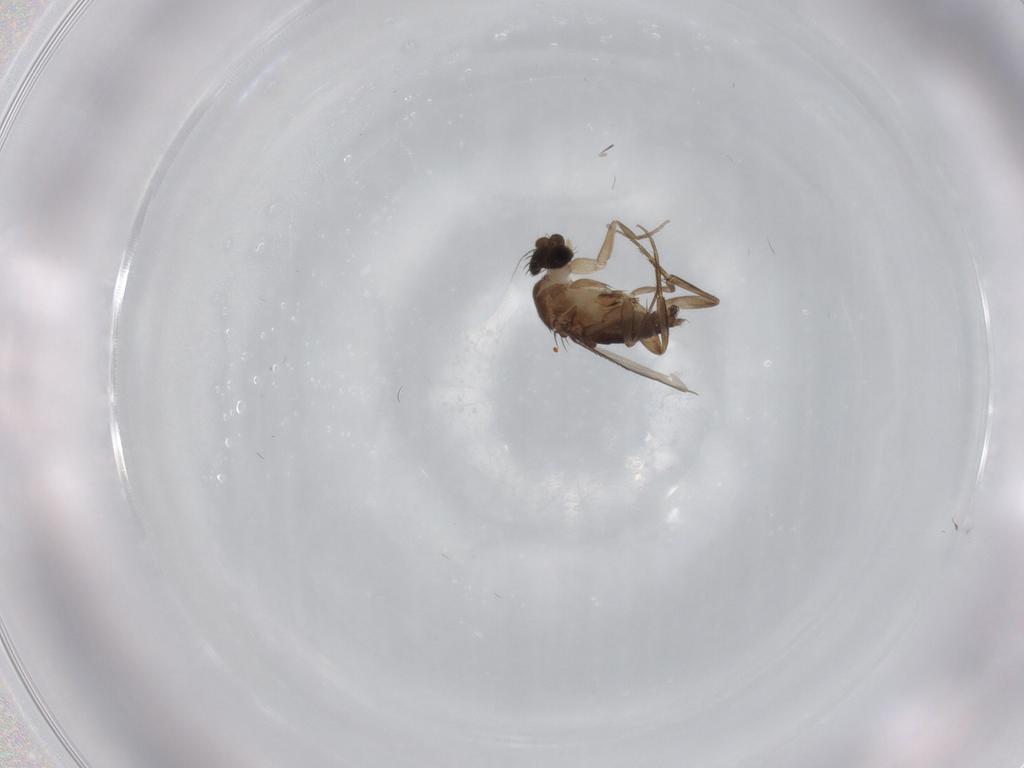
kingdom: Animalia
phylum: Arthropoda
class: Insecta
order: Diptera
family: Phoridae
